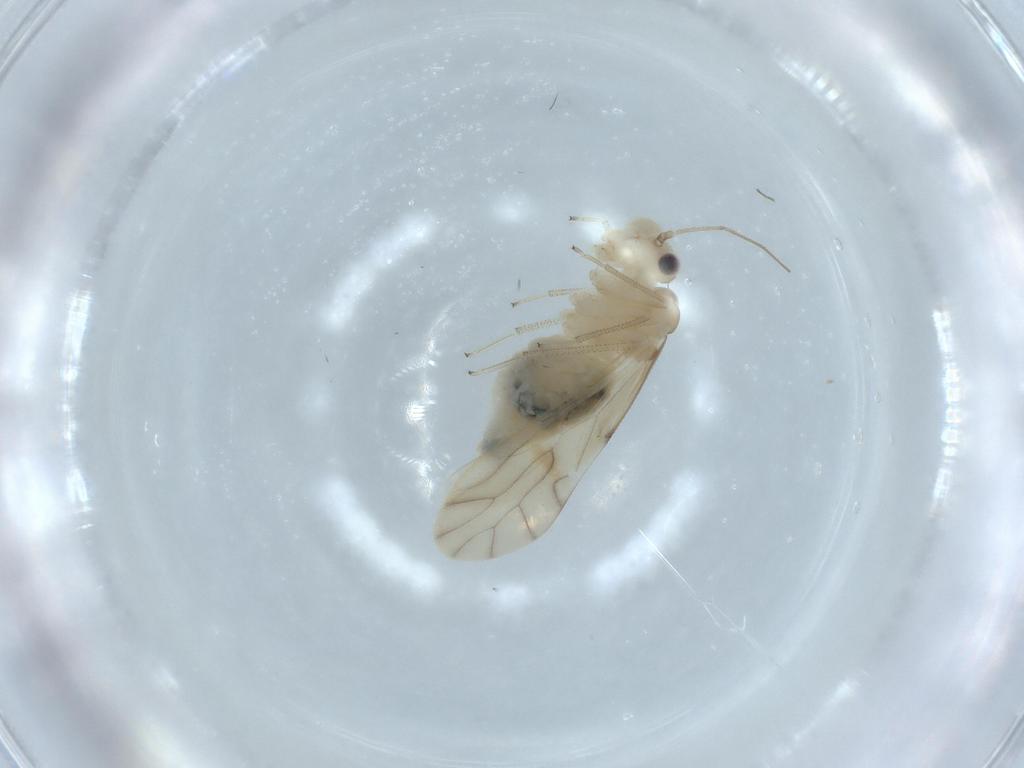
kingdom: Animalia
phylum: Arthropoda
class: Insecta
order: Psocodea
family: Caeciliusidae
